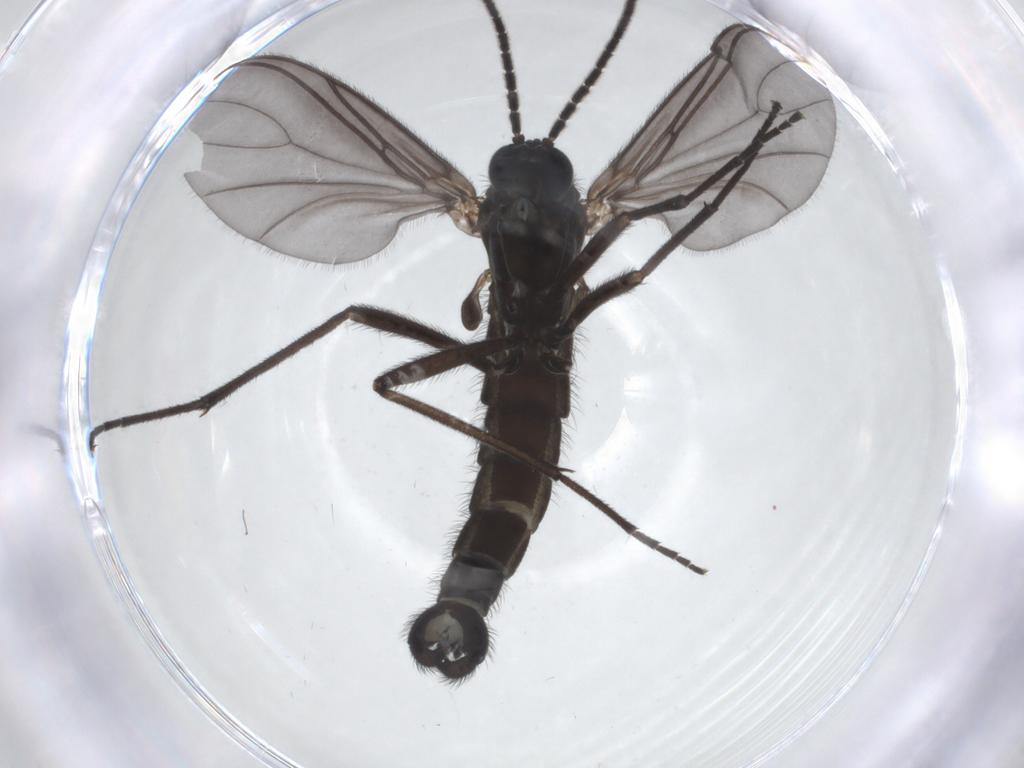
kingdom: Animalia
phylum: Arthropoda
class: Insecta
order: Diptera
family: Ceratopogonidae
